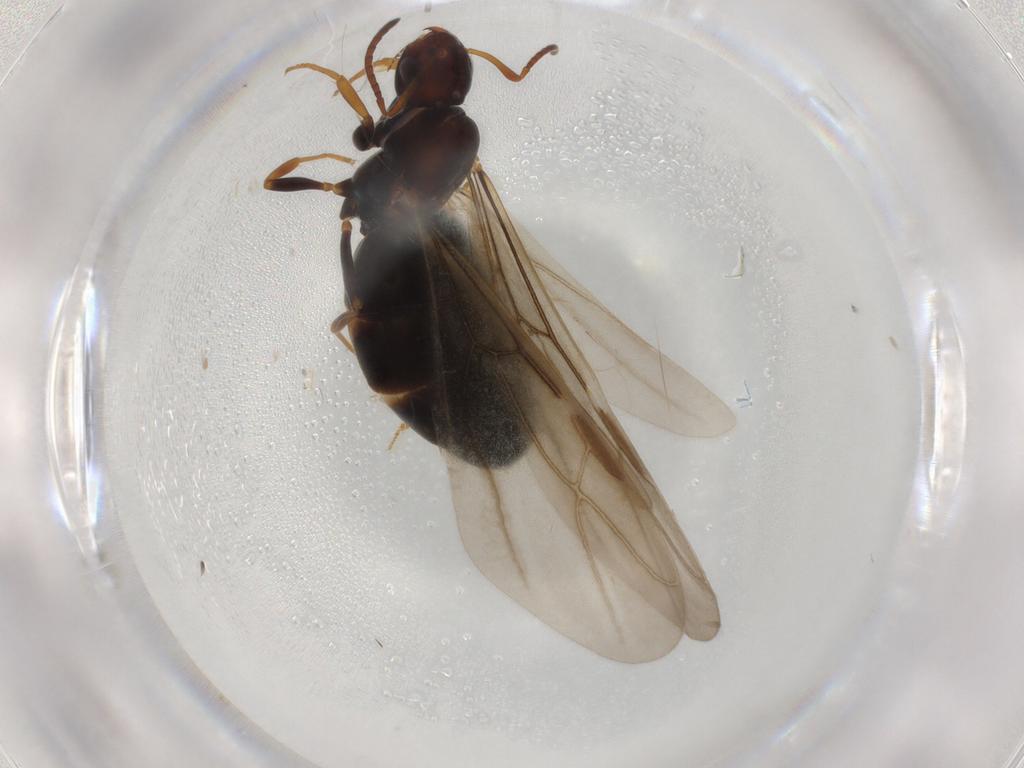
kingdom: Animalia
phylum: Arthropoda
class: Insecta
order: Hymenoptera
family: Formicidae
